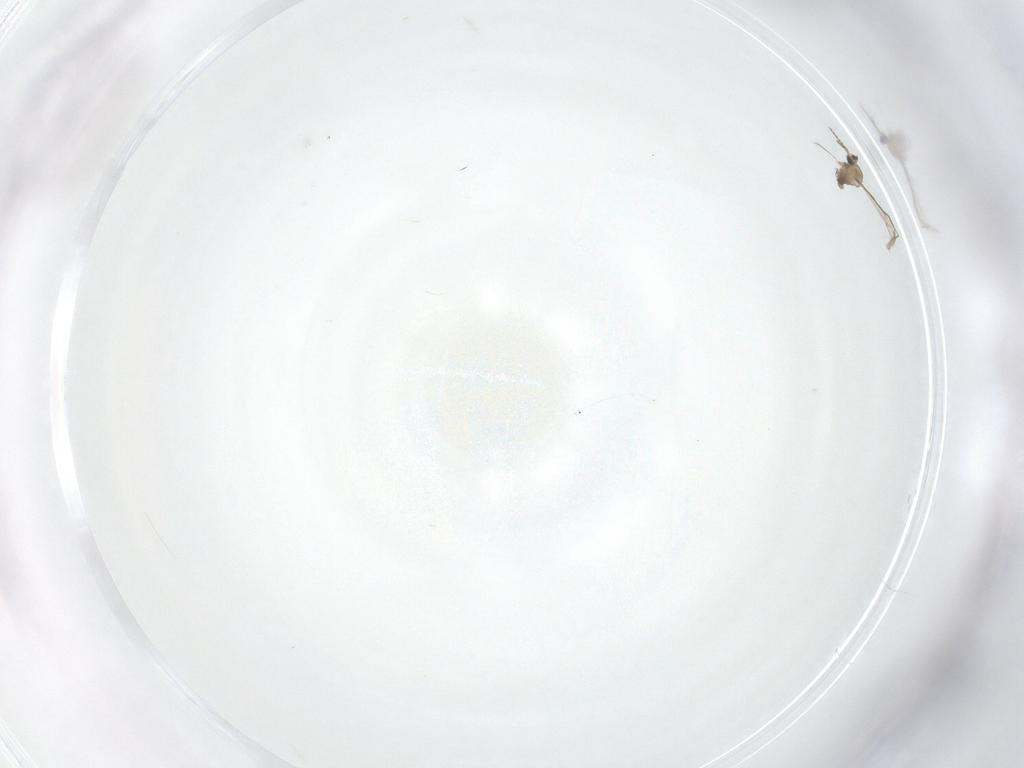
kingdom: Animalia
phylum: Arthropoda
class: Insecta
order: Diptera
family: Cecidomyiidae
